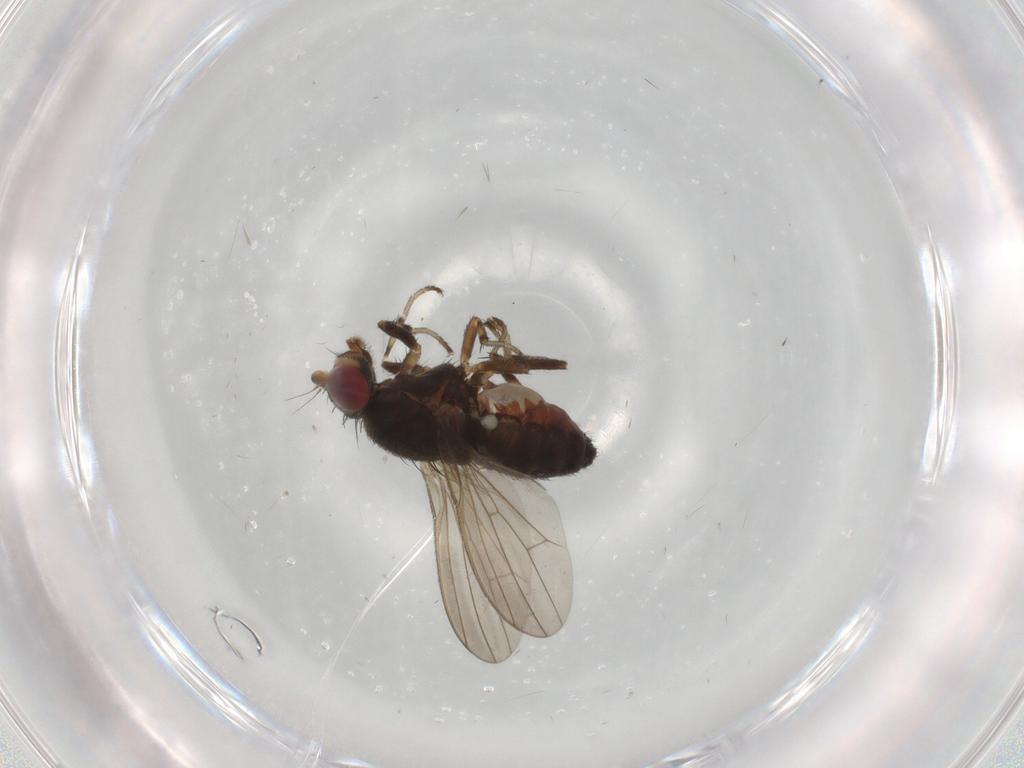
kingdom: Animalia
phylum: Arthropoda
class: Insecta
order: Diptera
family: Heleomyzidae
